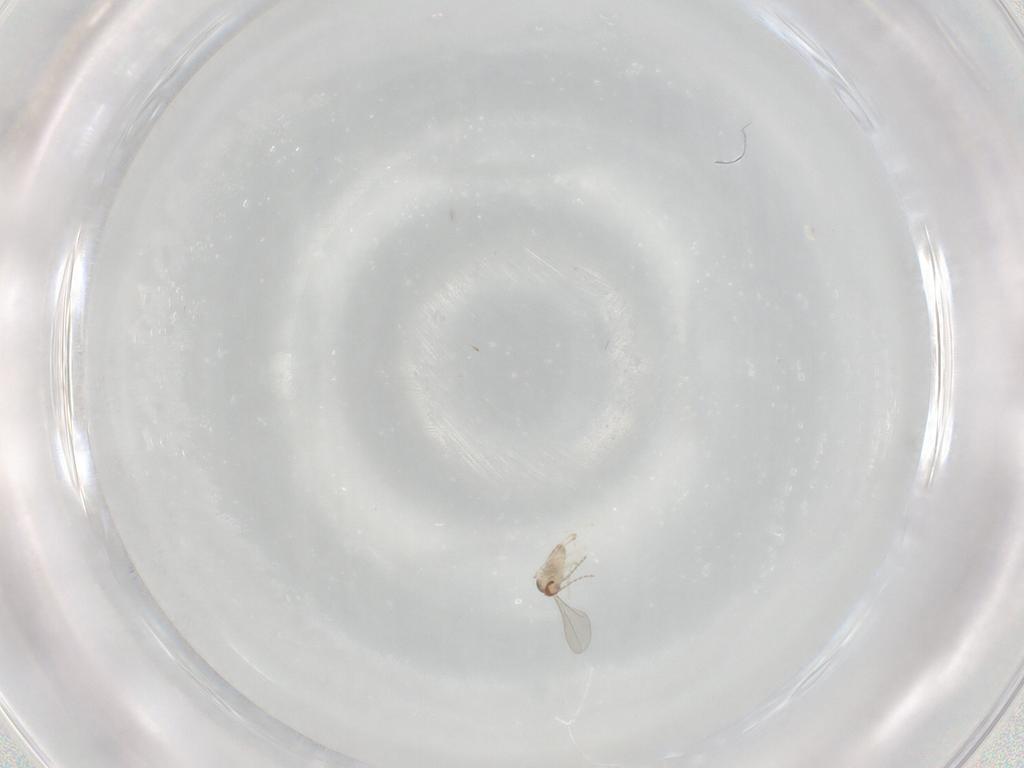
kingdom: Animalia
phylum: Arthropoda
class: Insecta
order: Diptera
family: Cecidomyiidae
